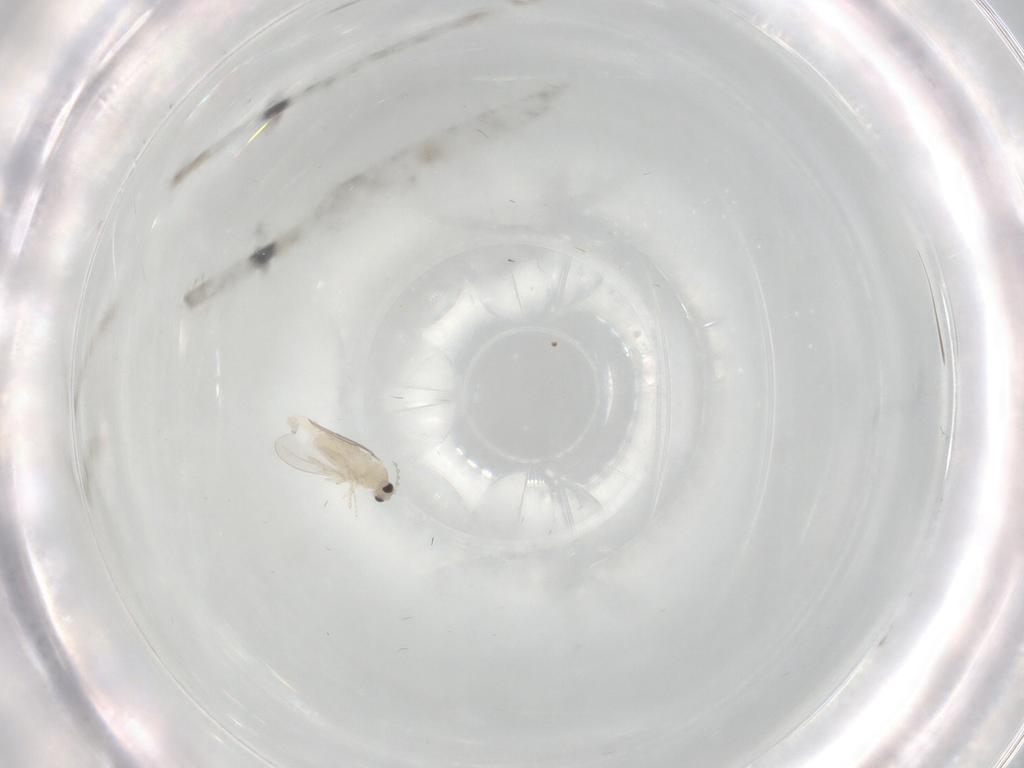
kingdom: Animalia
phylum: Arthropoda
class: Insecta
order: Diptera
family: Cecidomyiidae
